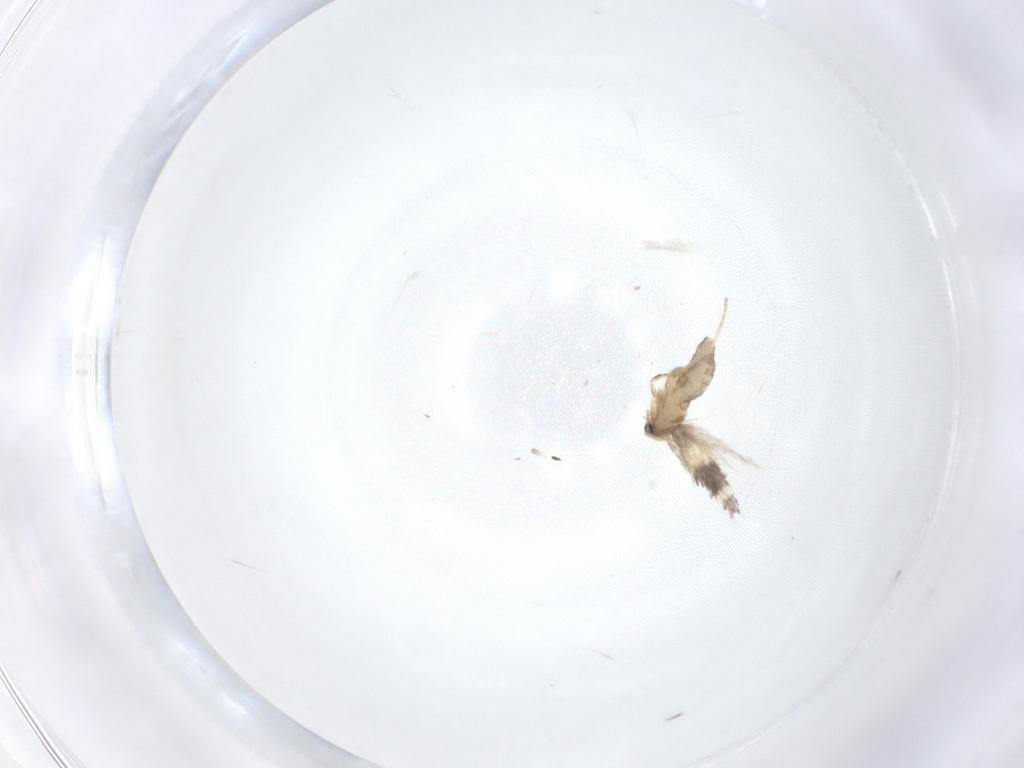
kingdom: Animalia
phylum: Arthropoda
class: Insecta
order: Lepidoptera
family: Nepticulidae
